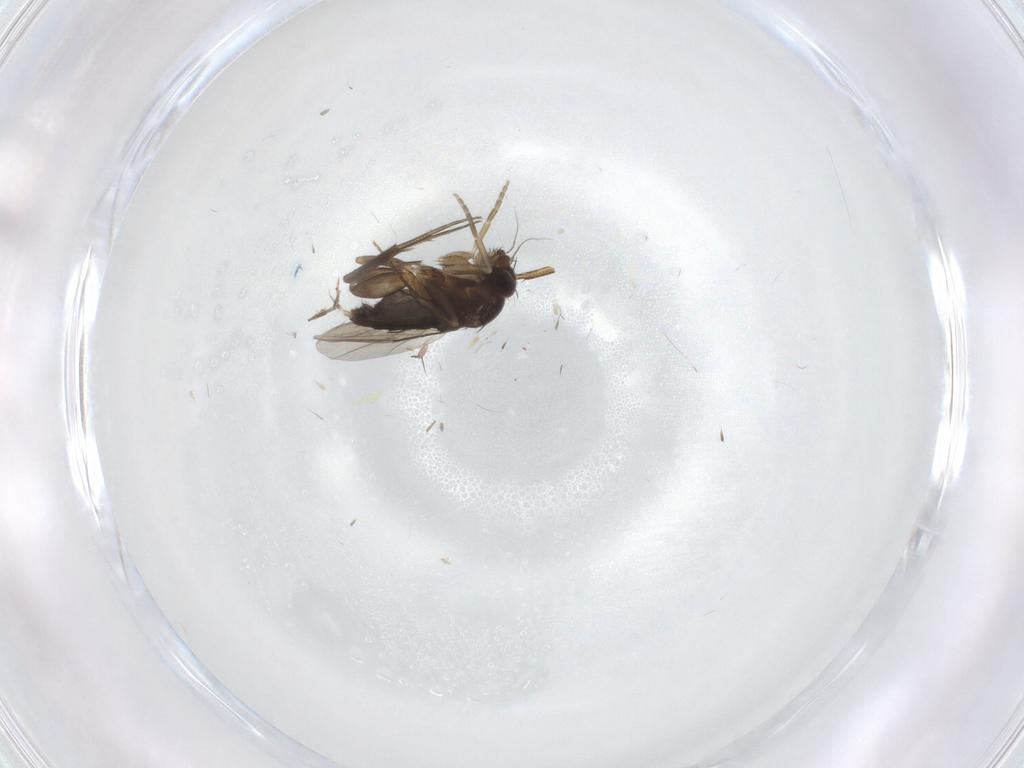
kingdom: Animalia
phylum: Arthropoda
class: Insecta
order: Diptera
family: Phoridae
